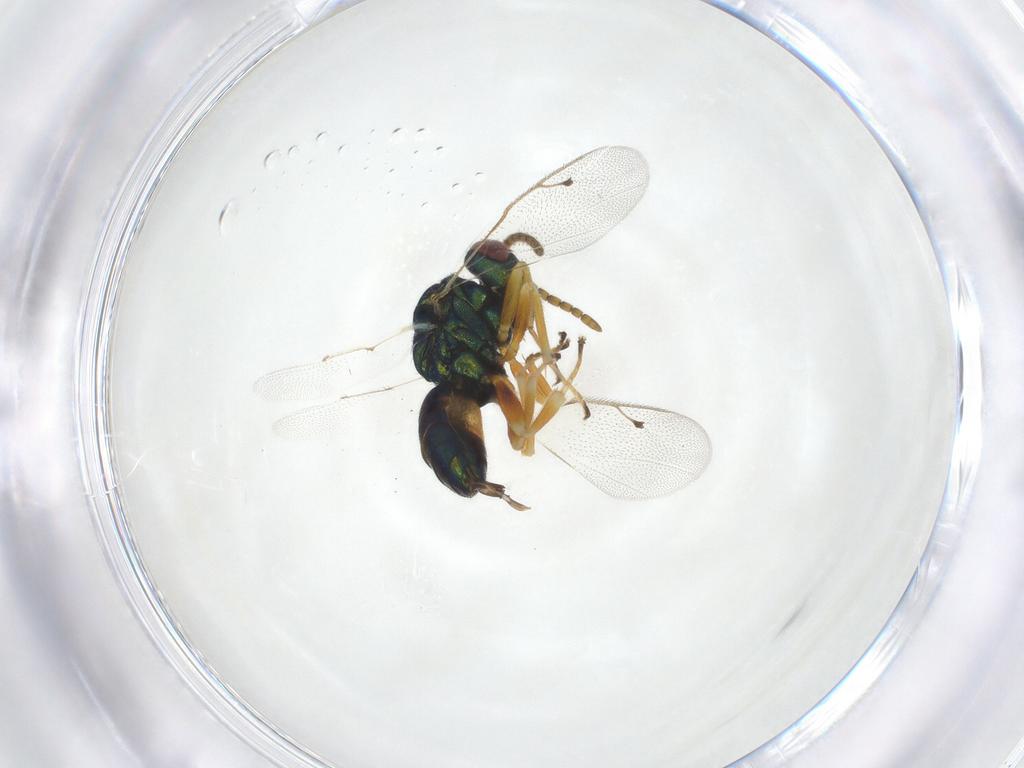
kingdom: Animalia
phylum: Arthropoda
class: Insecta
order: Hymenoptera
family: Pteromalidae
